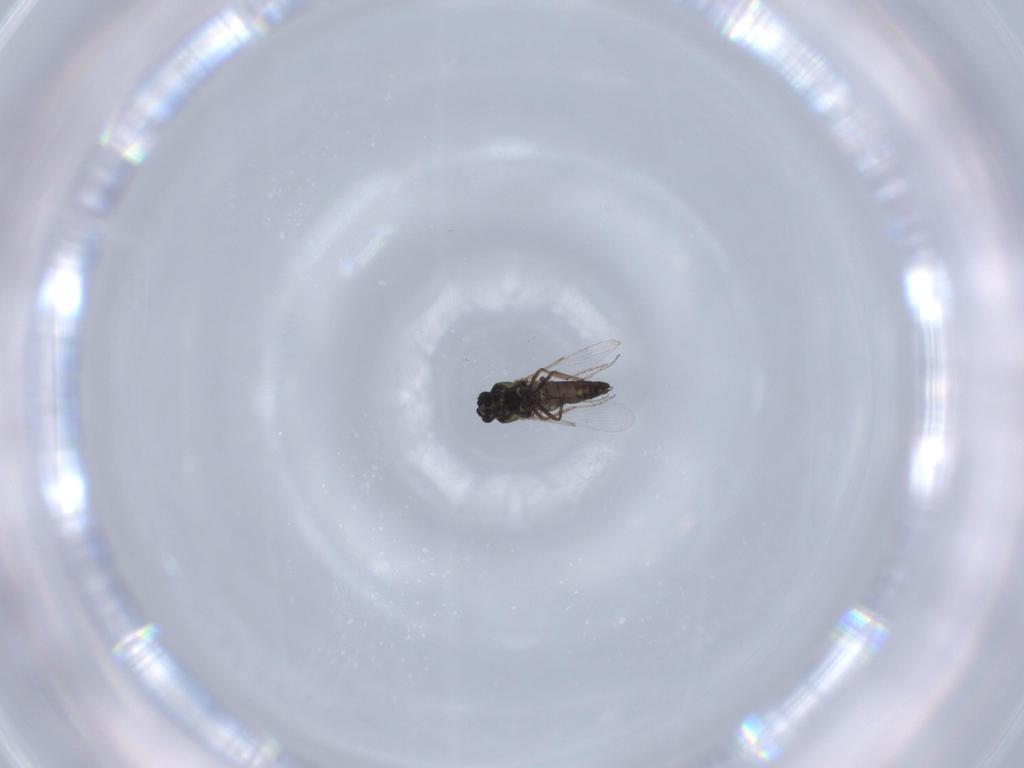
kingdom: Animalia
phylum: Arthropoda
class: Insecta
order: Diptera
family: Ceratopogonidae
